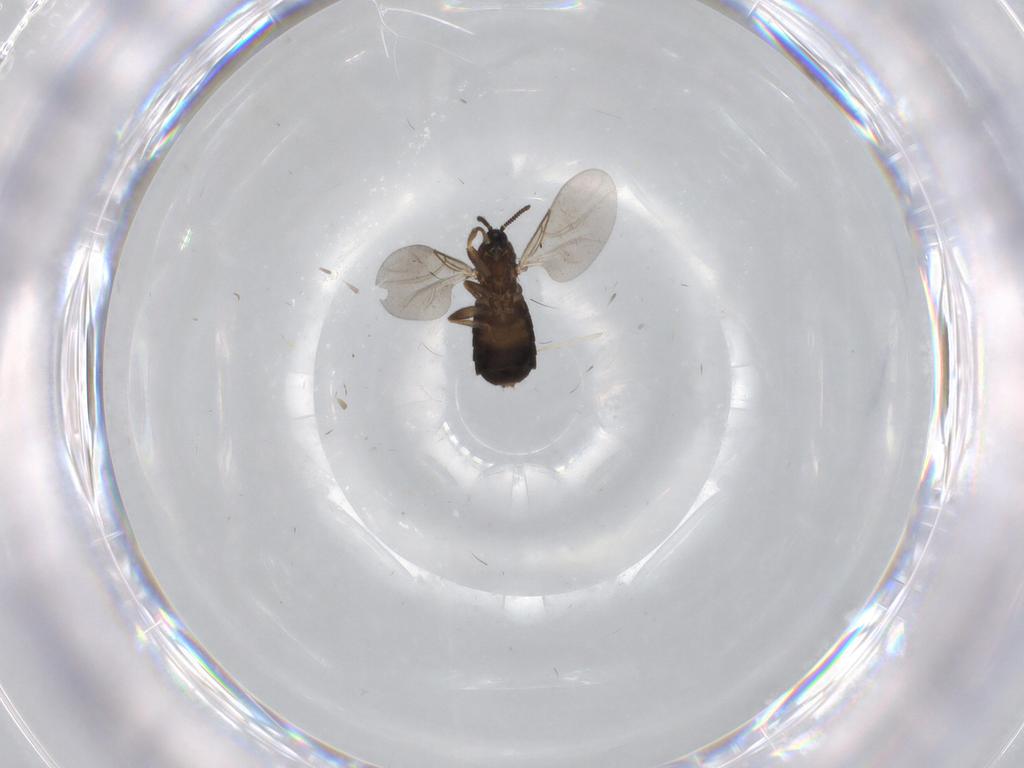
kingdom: Animalia
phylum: Arthropoda
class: Insecta
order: Diptera
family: Scatopsidae
